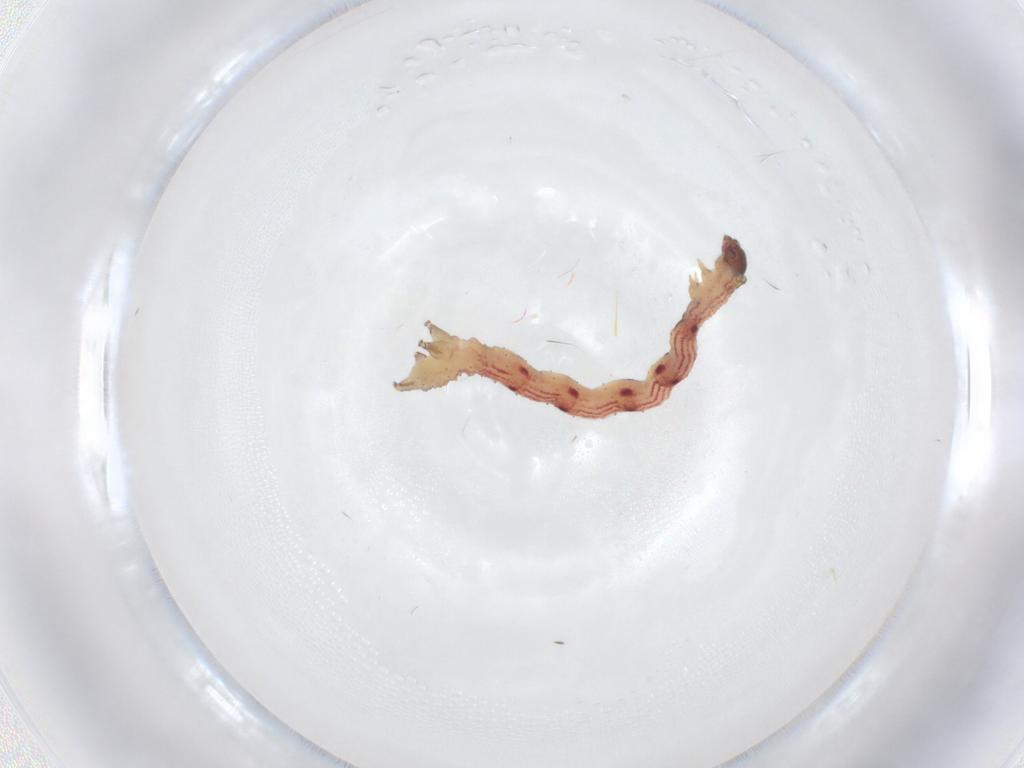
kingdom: Animalia
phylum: Arthropoda
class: Insecta
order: Lepidoptera
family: Geometridae
